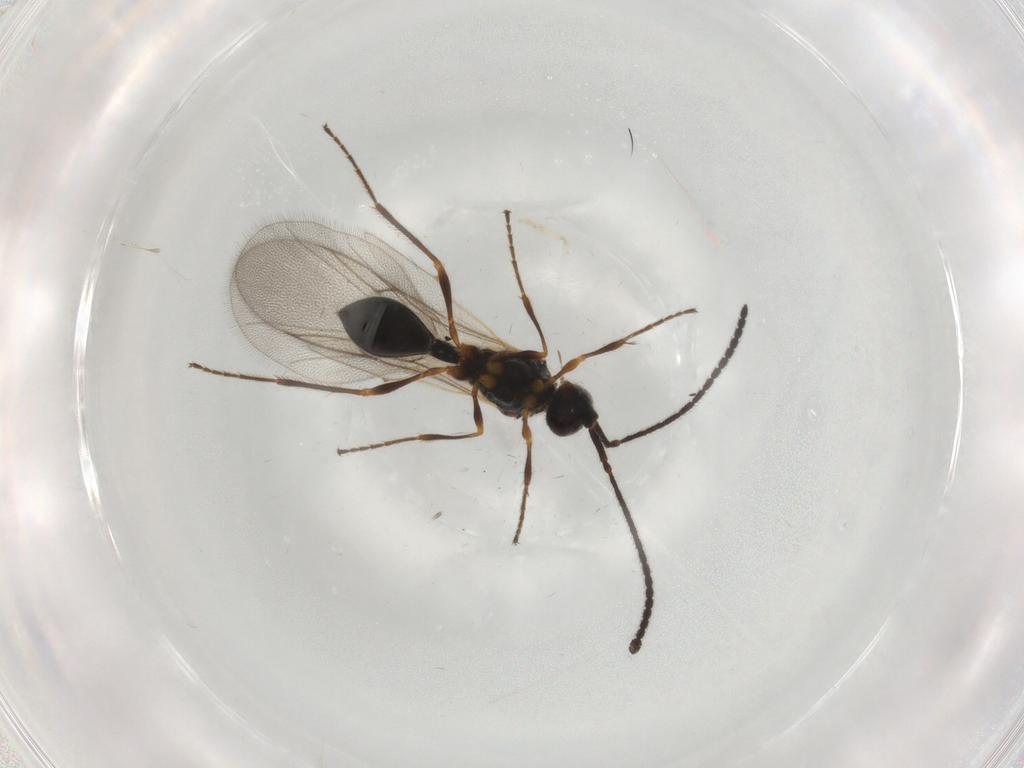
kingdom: Animalia
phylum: Arthropoda
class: Insecta
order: Hymenoptera
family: Diapriidae
